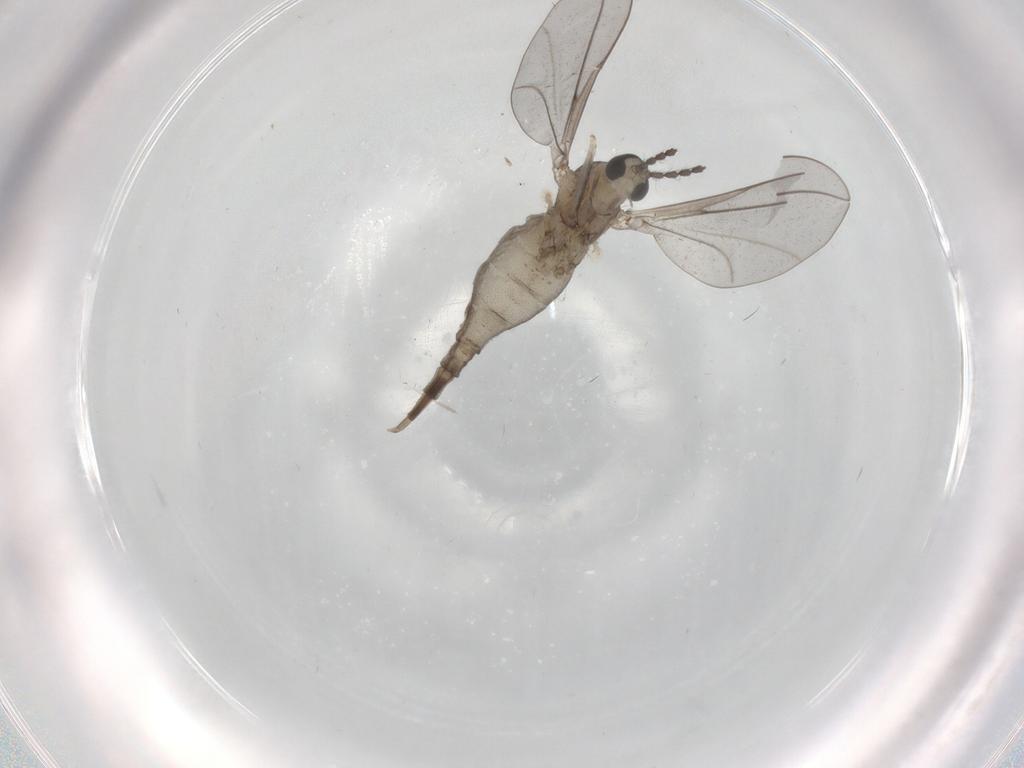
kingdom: Animalia
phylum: Arthropoda
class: Insecta
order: Diptera
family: Cecidomyiidae
